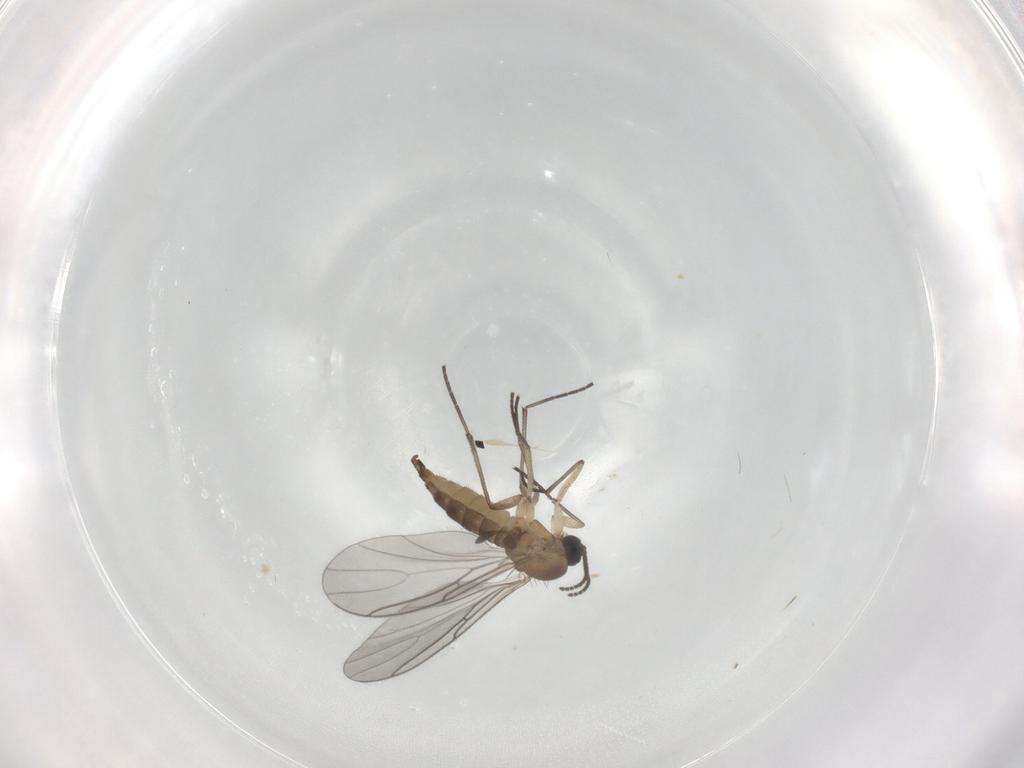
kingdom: Animalia
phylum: Arthropoda
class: Insecta
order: Diptera
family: Sciaridae
